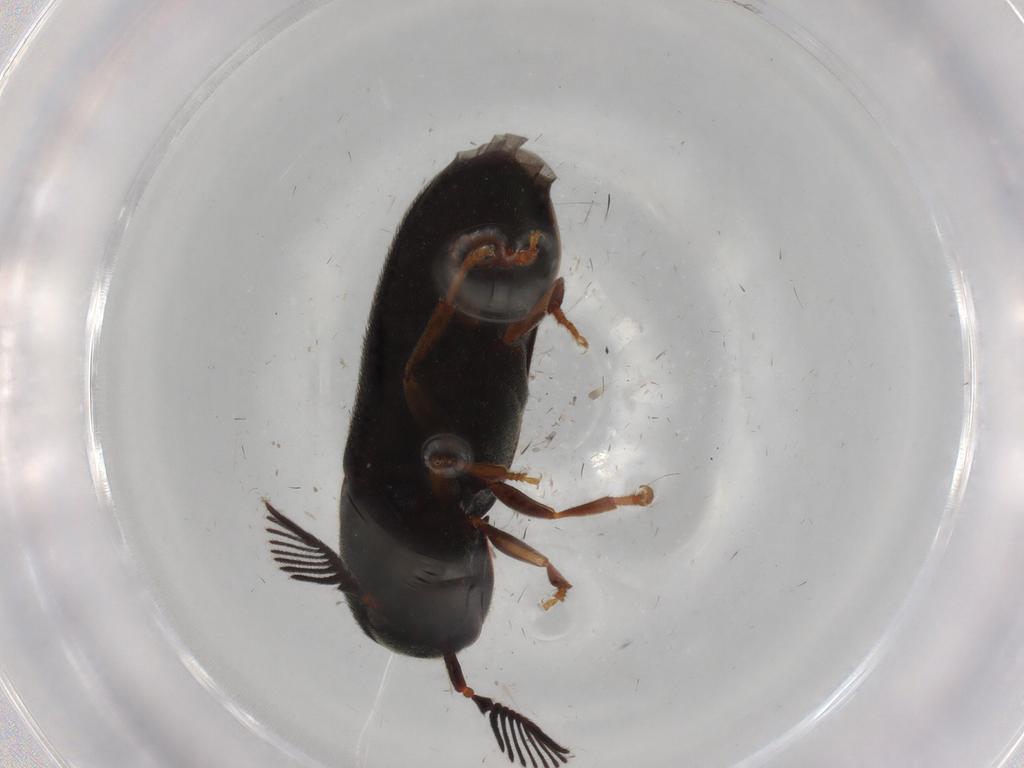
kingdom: Animalia
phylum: Arthropoda
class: Insecta
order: Coleoptera
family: Eucnemidae
